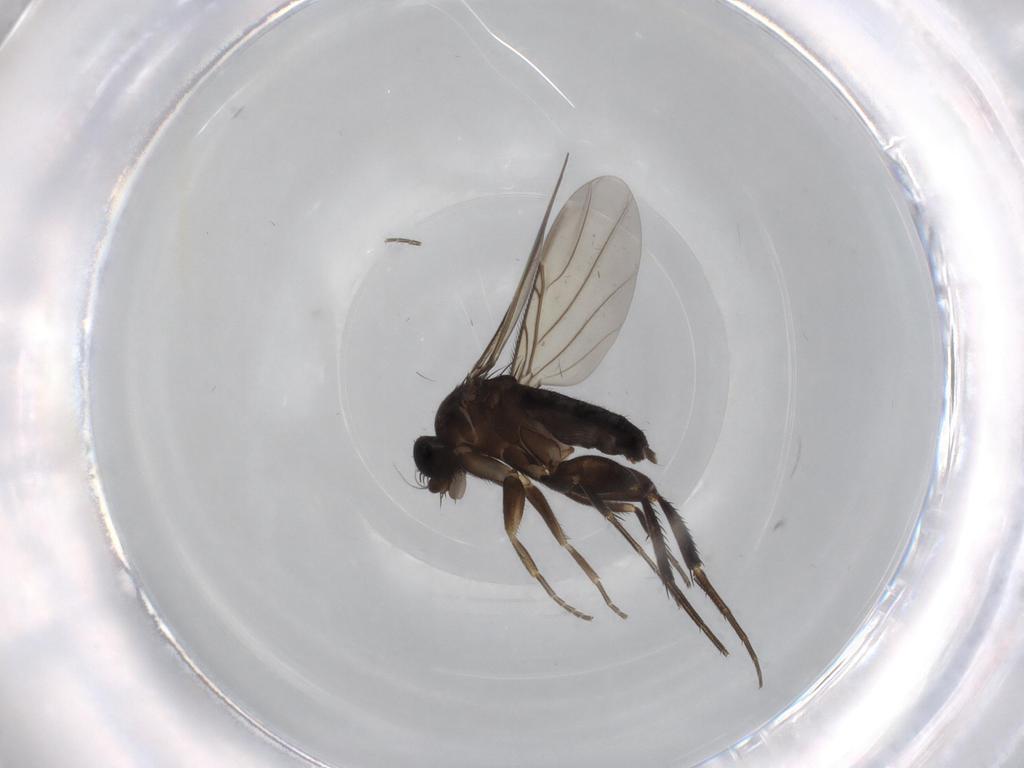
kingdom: Animalia
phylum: Arthropoda
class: Insecta
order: Diptera
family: Phoridae
